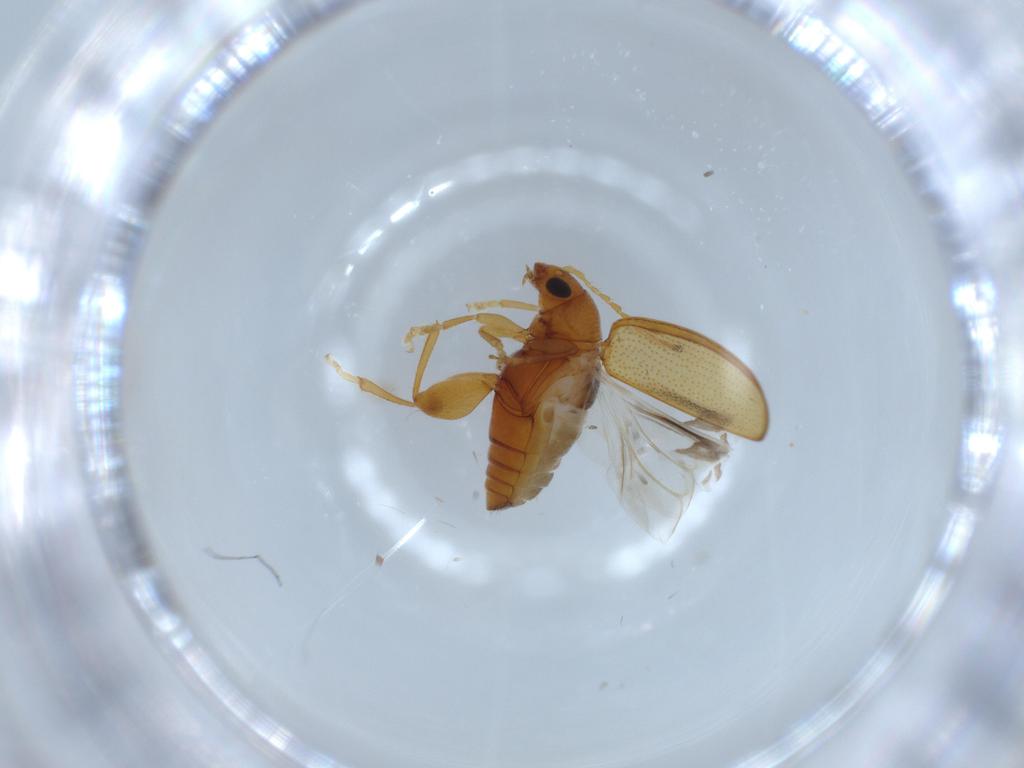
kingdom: Animalia
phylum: Arthropoda
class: Insecta
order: Coleoptera
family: Chrysomelidae
